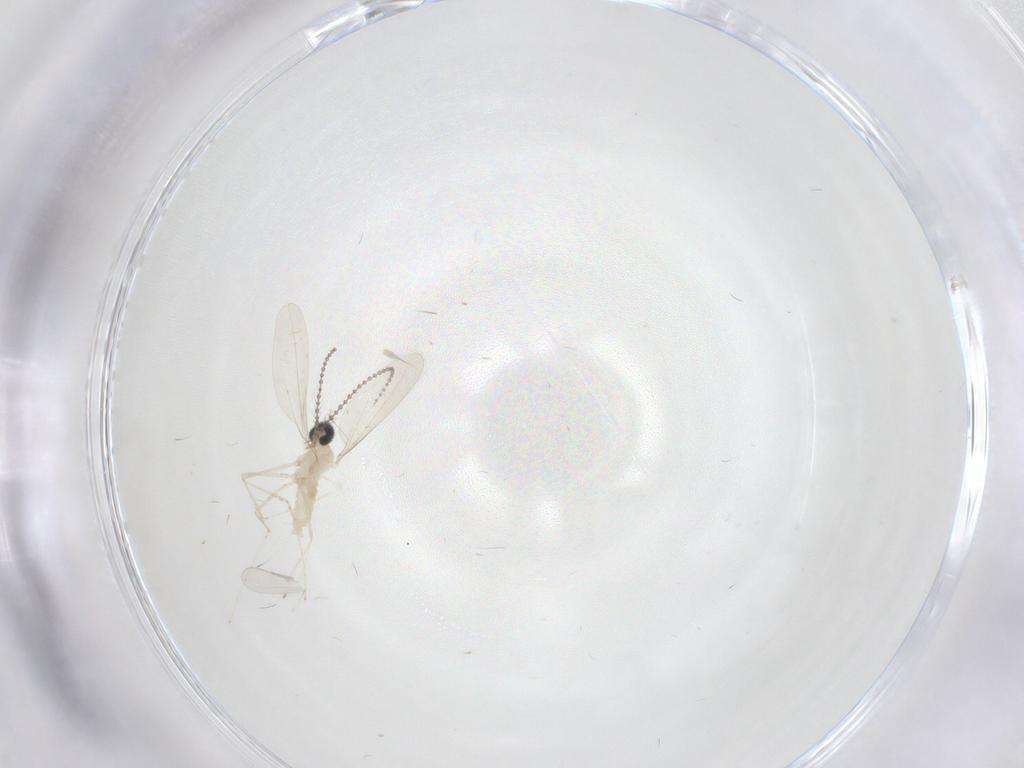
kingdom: Animalia
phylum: Arthropoda
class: Insecta
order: Diptera
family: Cecidomyiidae
